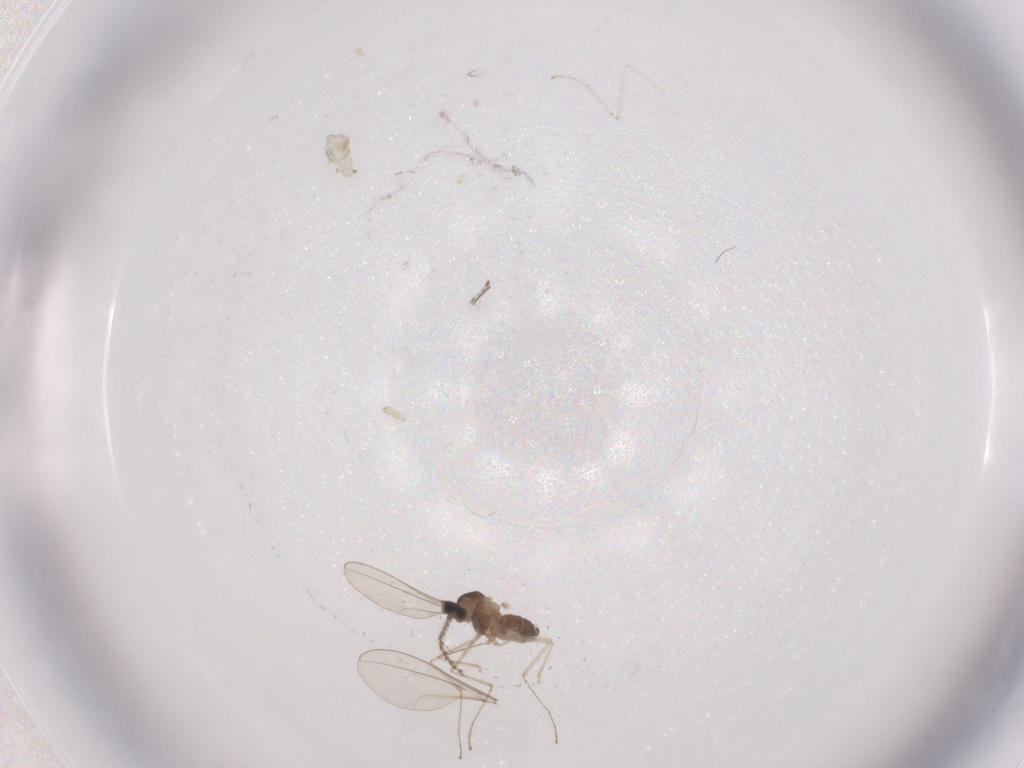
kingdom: Animalia
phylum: Arthropoda
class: Insecta
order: Diptera
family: Cecidomyiidae
